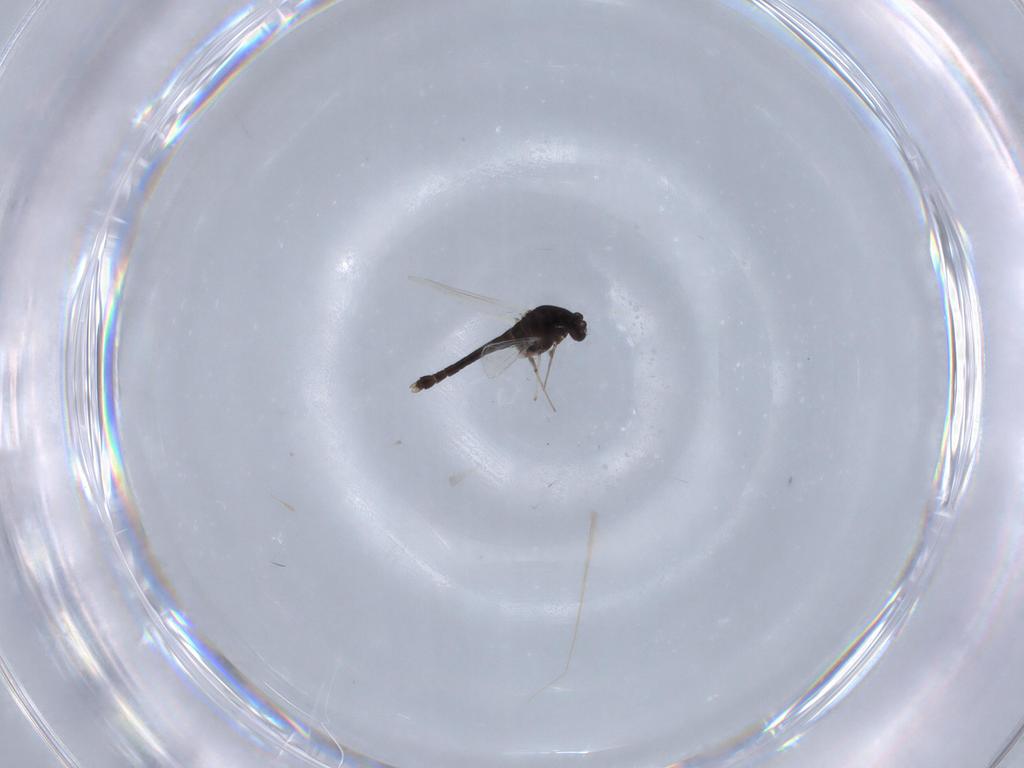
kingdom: Animalia
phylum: Arthropoda
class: Insecta
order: Diptera
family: Chironomidae
